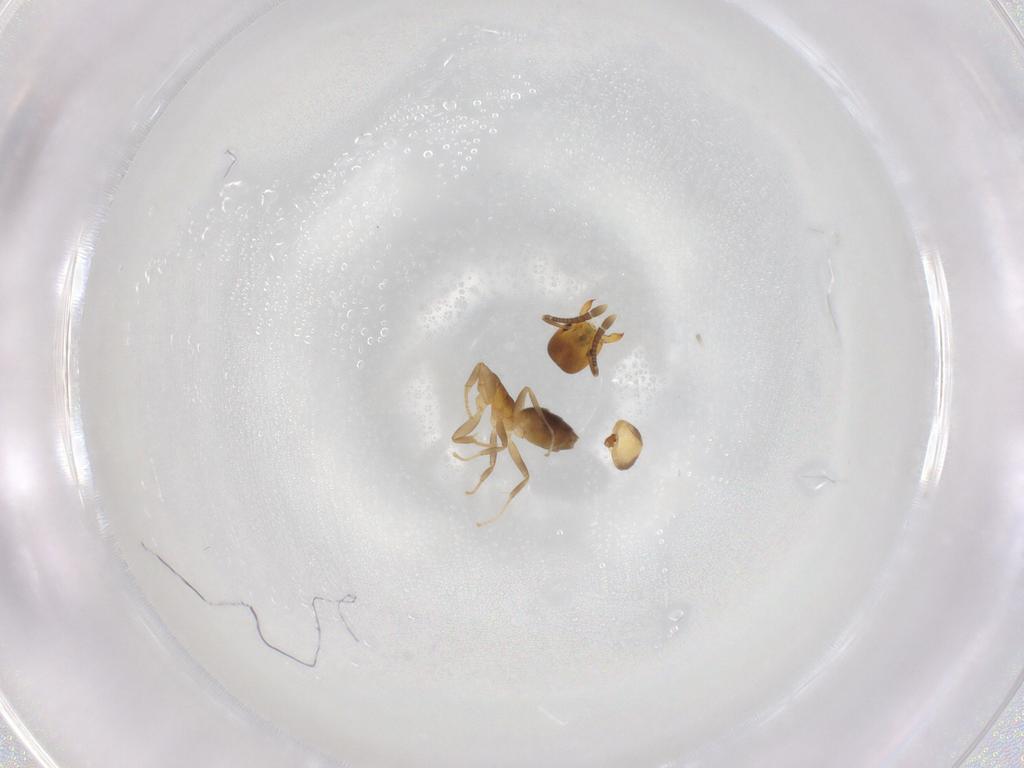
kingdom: Animalia
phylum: Arthropoda
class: Insecta
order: Hymenoptera
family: Formicidae
